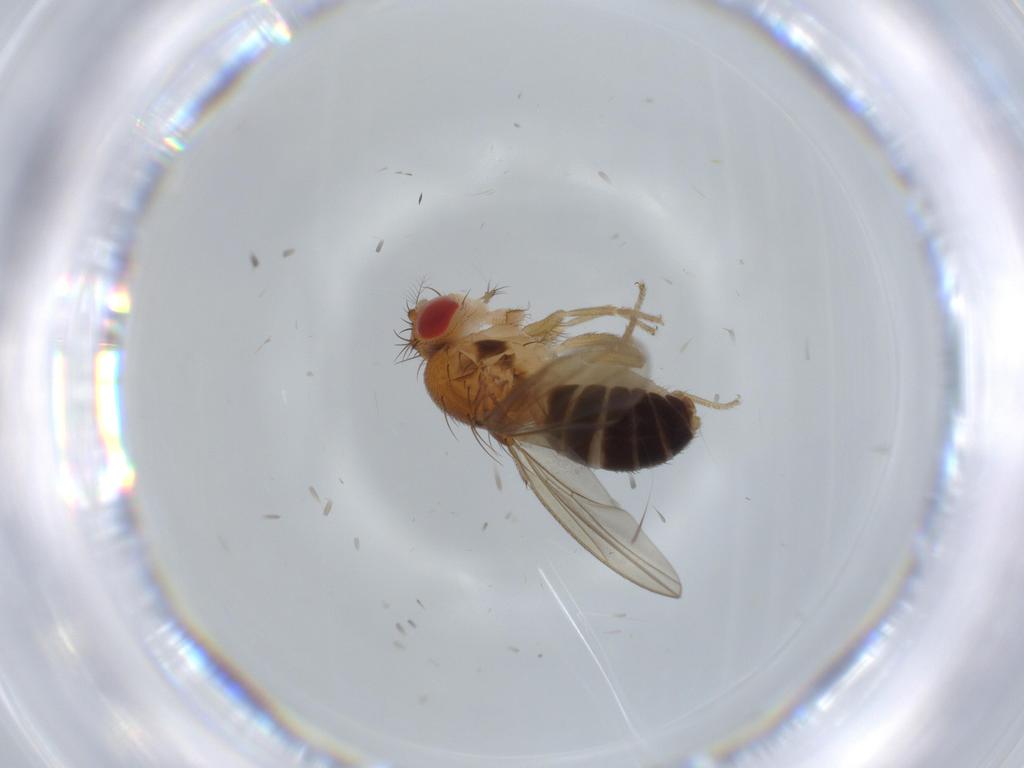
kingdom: Animalia
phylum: Arthropoda
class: Insecta
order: Diptera
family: Drosophilidae
